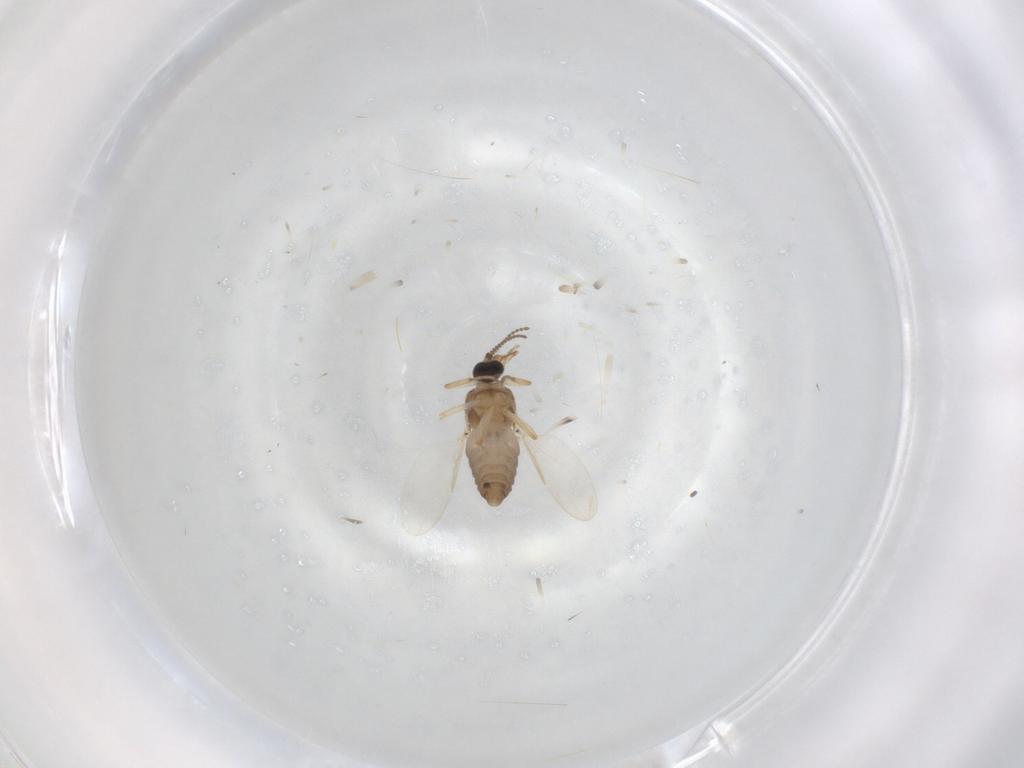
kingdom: Animalia
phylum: Arthropoda
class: Insecta
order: Diptera
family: Ceratopogonidae
